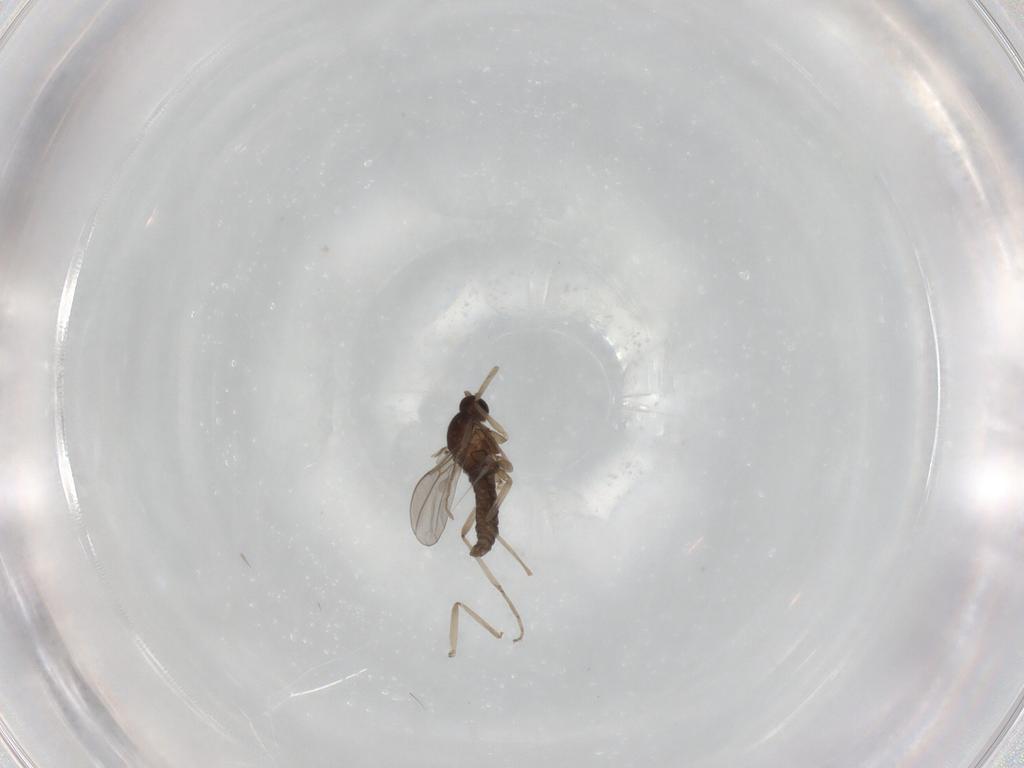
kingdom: Animalia
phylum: Arthropoda
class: Insecta
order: Diptera
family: Cecidomyiidae
